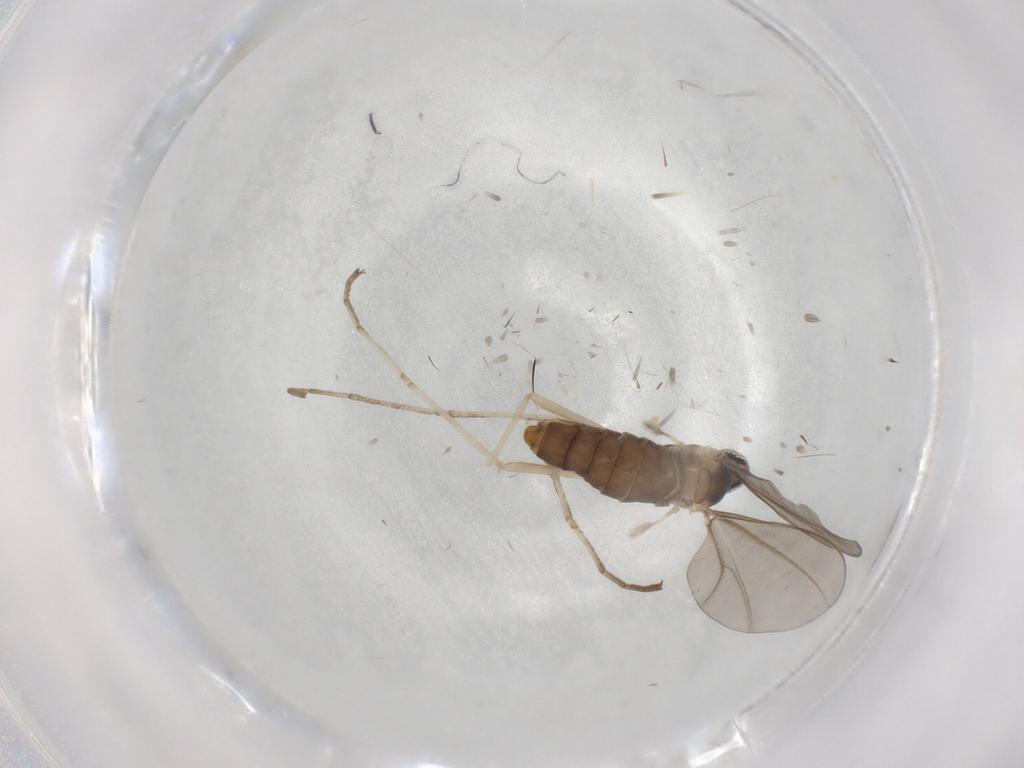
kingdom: Animalia
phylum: Arthropoda
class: Insecta
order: Diptera
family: Cecidomyiidae
